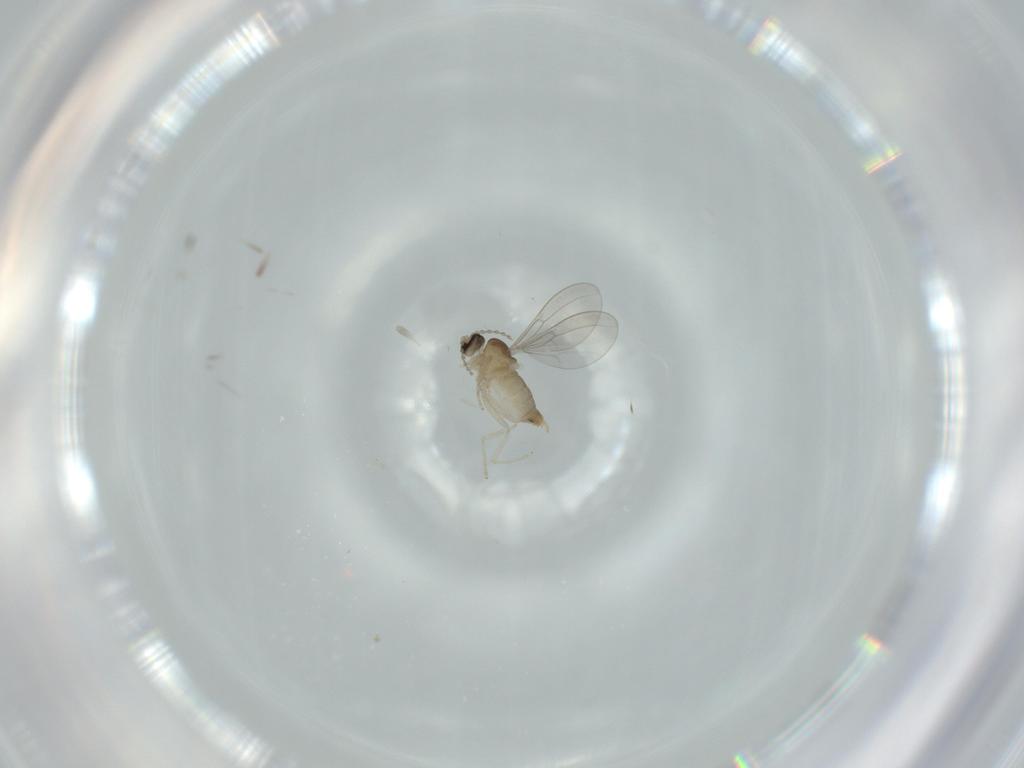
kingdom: Animalia
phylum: Arthropoda
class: Insecta
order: Diptera
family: Cecidomyiidae
